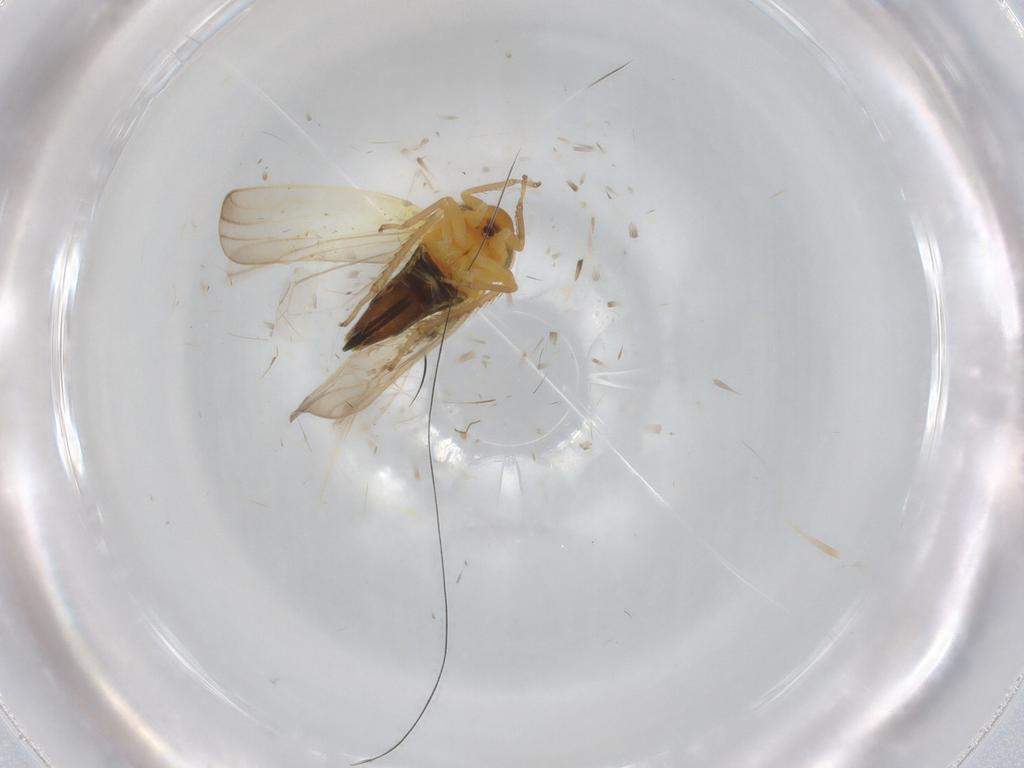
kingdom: Animalia
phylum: Arthropoda
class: Insecta
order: Hemiptera
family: Cicadellidae
